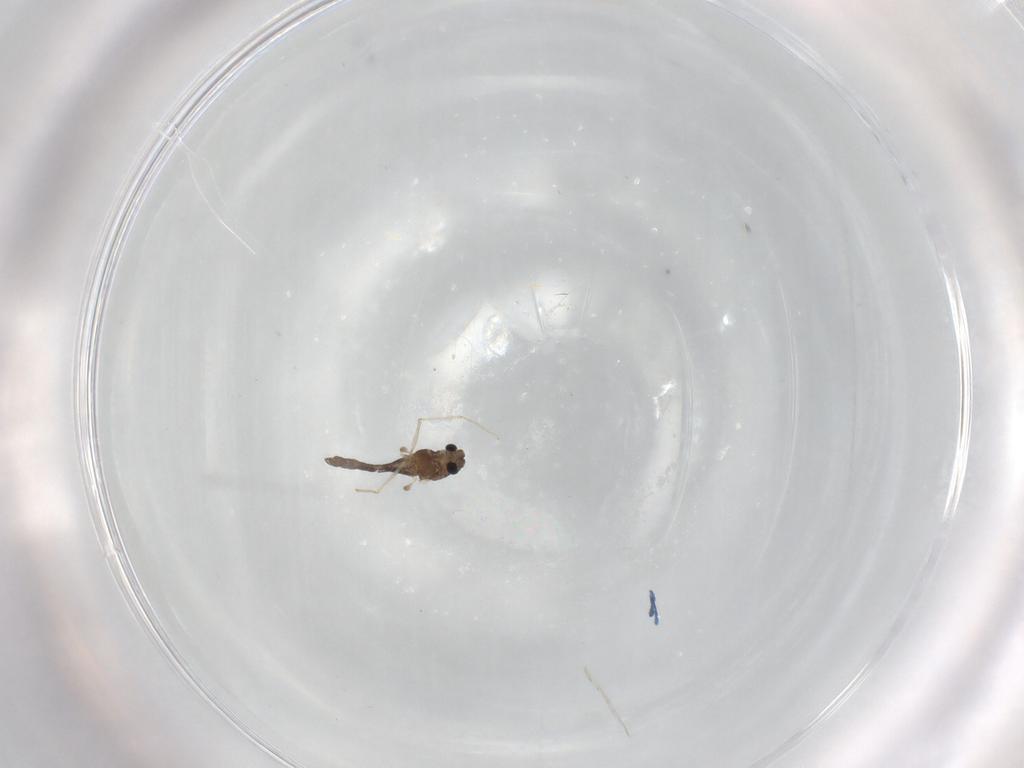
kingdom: Animalia
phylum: Arthropoda
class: Insecta
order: Diptera
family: Chironomidae
